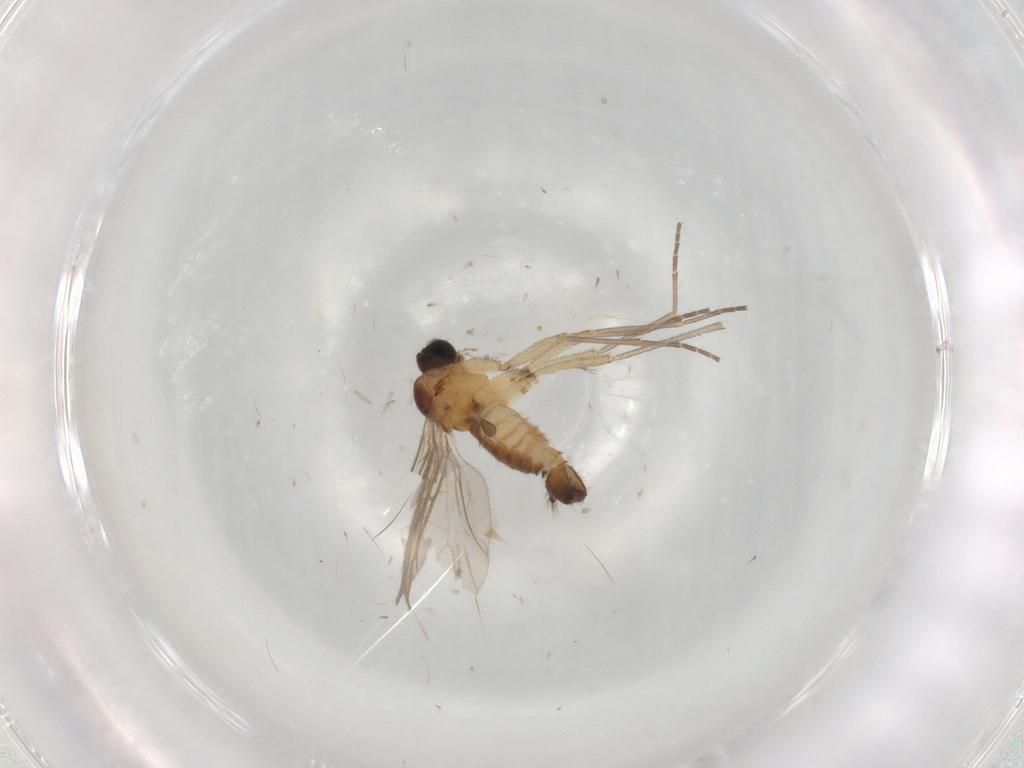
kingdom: Animalia
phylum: Arthropoda
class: Insecta
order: Diptera
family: Sciaridae
